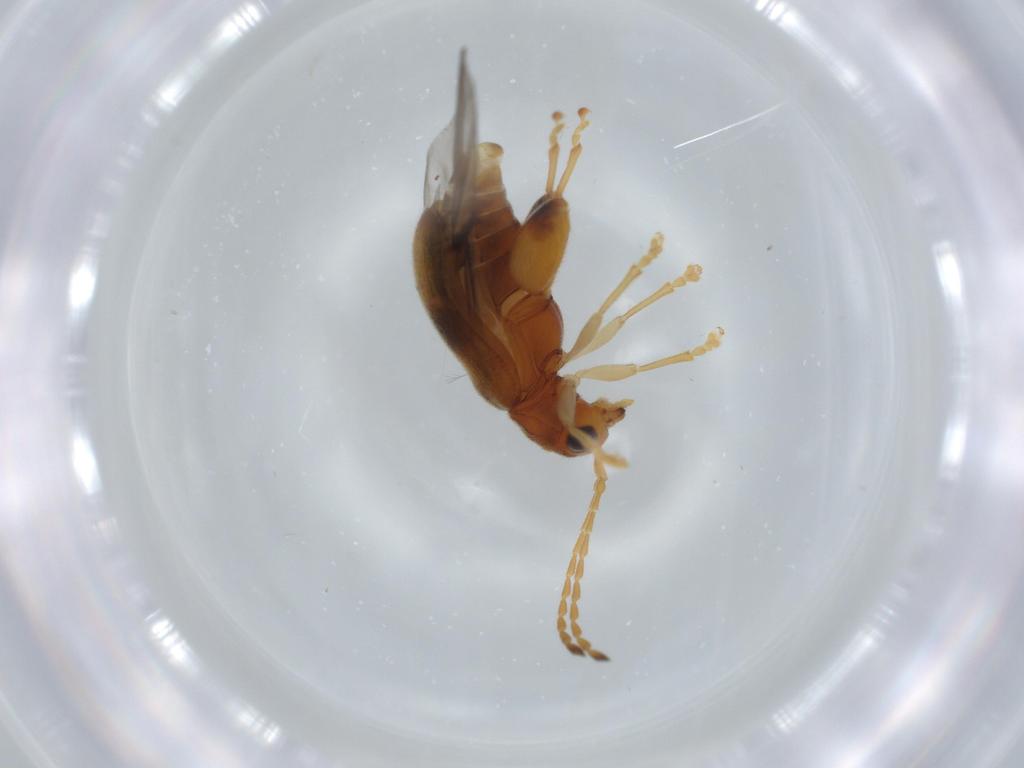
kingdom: Animalia
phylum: Arthropoda
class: Insecta
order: Coleoptera
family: Chrysomelidae
